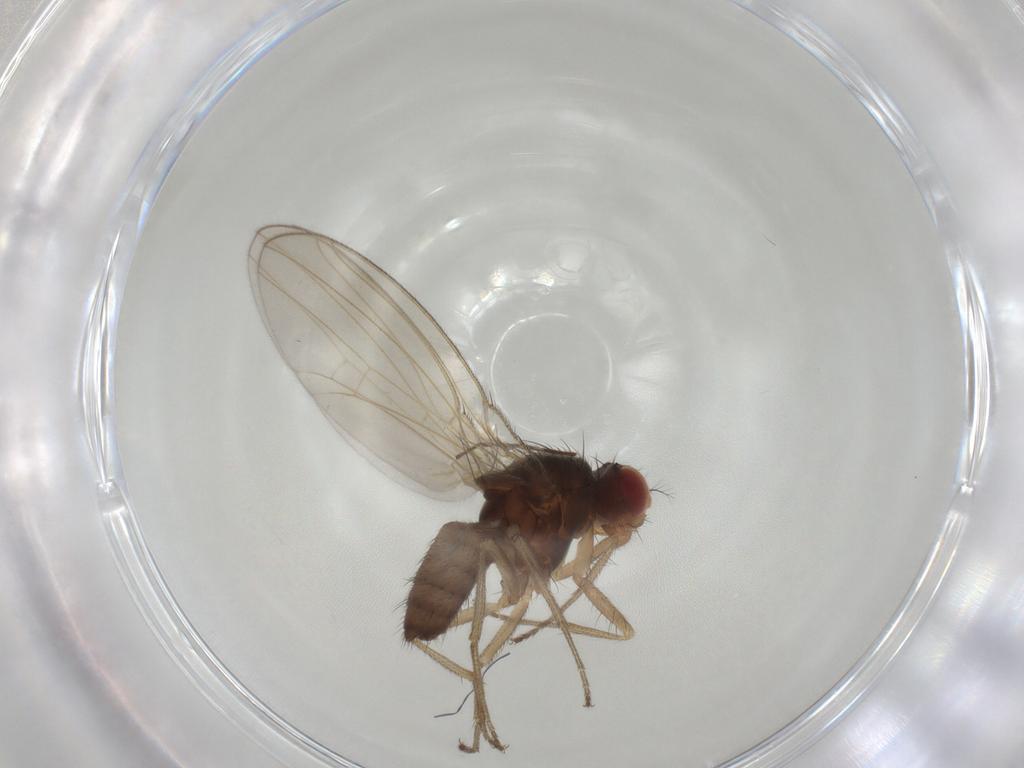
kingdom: Animalia
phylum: Arthropoda
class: Insecta
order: Diptera
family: Drosophilidae
